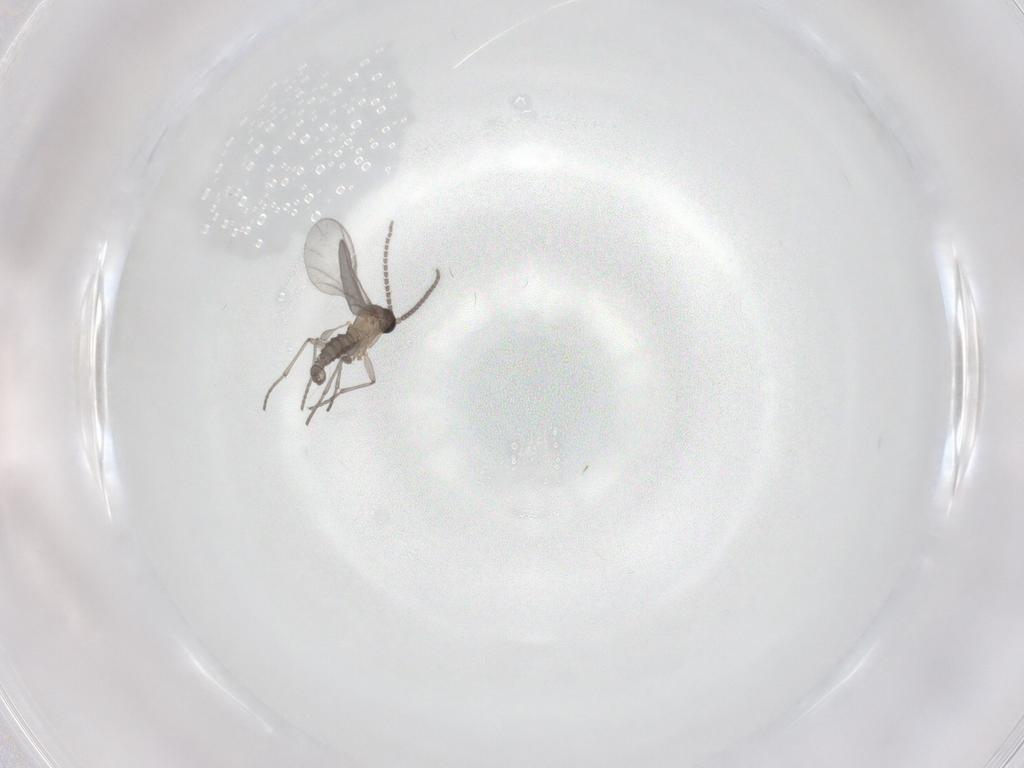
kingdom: Animalia
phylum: Arthropoda
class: Insecta
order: Diptera
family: Sciaridae
